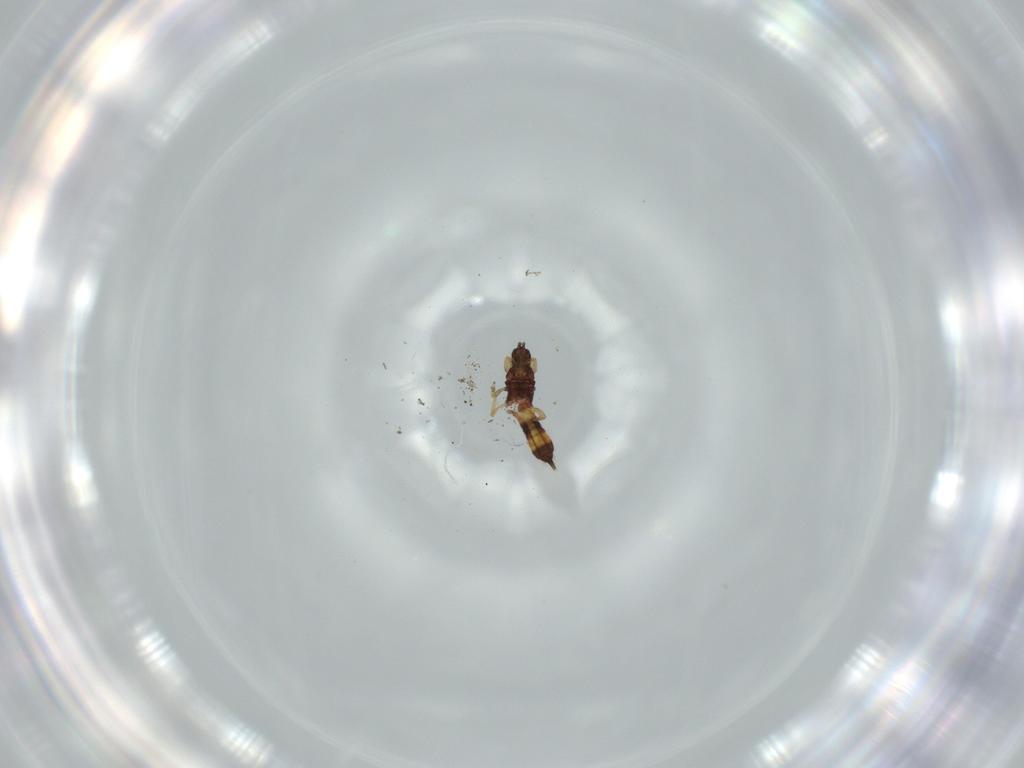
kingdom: Animalia
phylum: Arthropoda
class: Insecta
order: Thysanoptera
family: Phlaeothripidae
